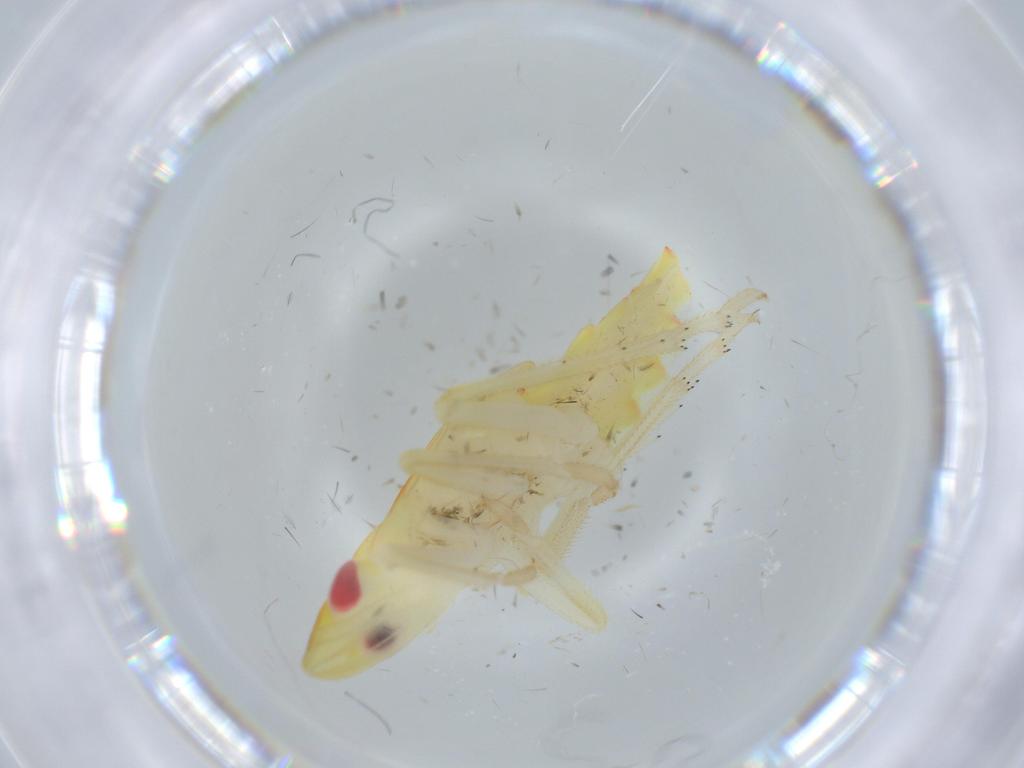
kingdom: Animalia
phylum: Arthropoda
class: Insecta
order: Hemiptera
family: Tropiduchidae
